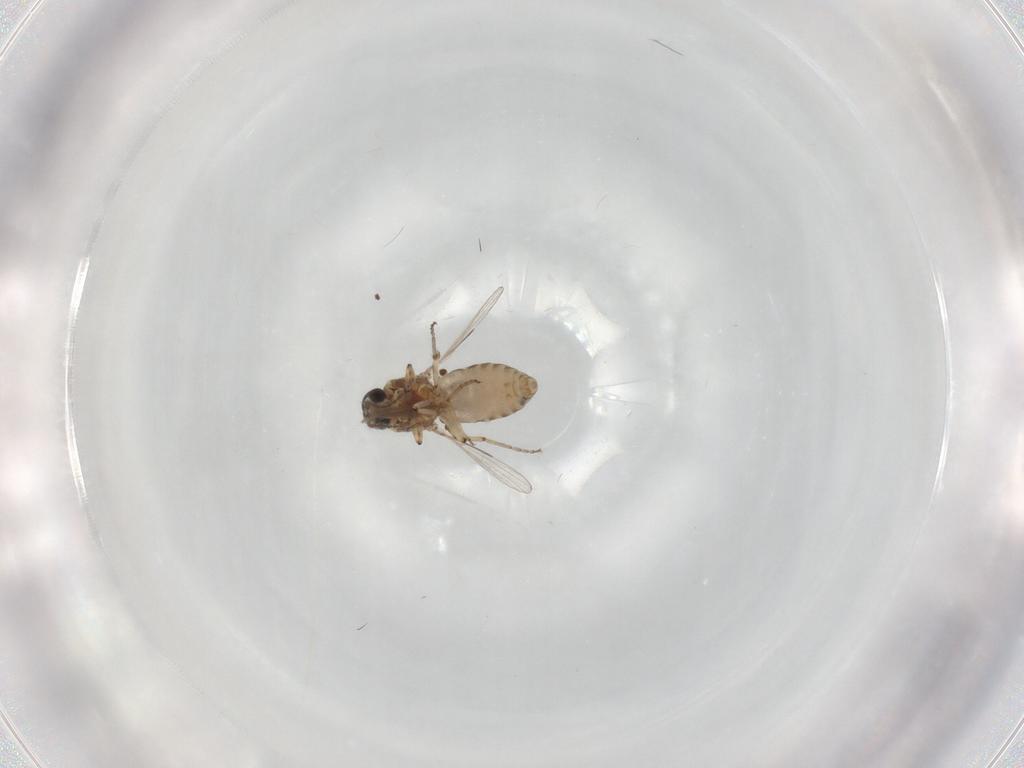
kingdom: Animalia
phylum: Arthropoda
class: Insecta
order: Diptera
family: Ceratopogonidae
